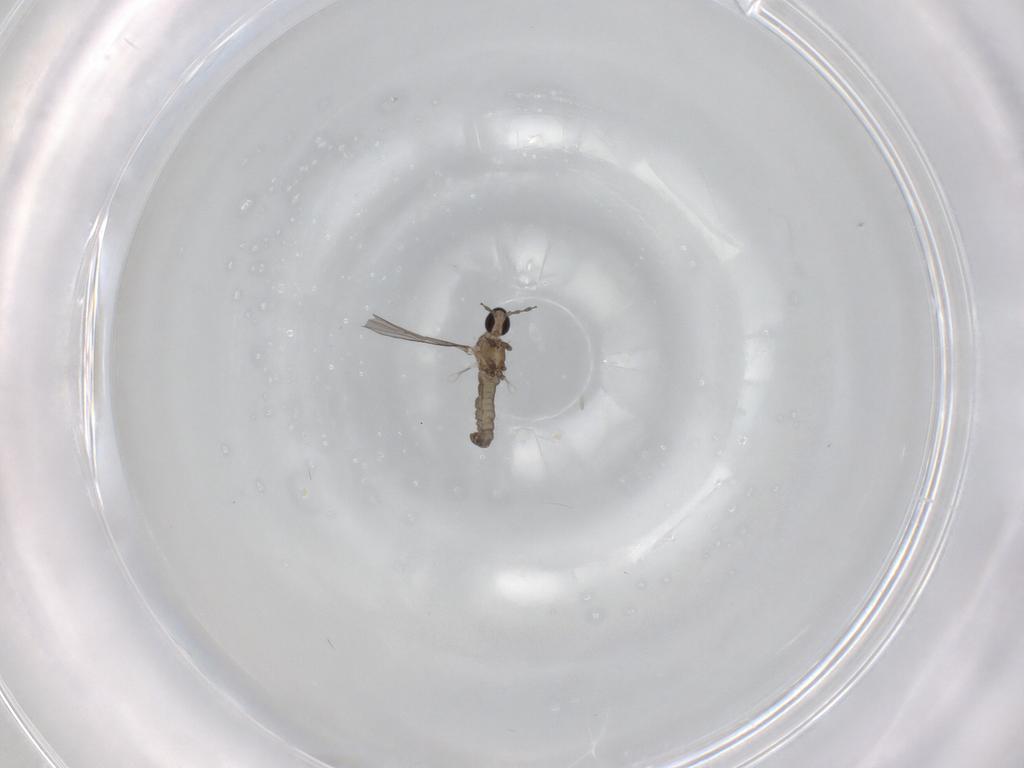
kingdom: Animalia
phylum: Arthropoda
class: Insecta
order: Diptera
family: Cecidomyiidae
